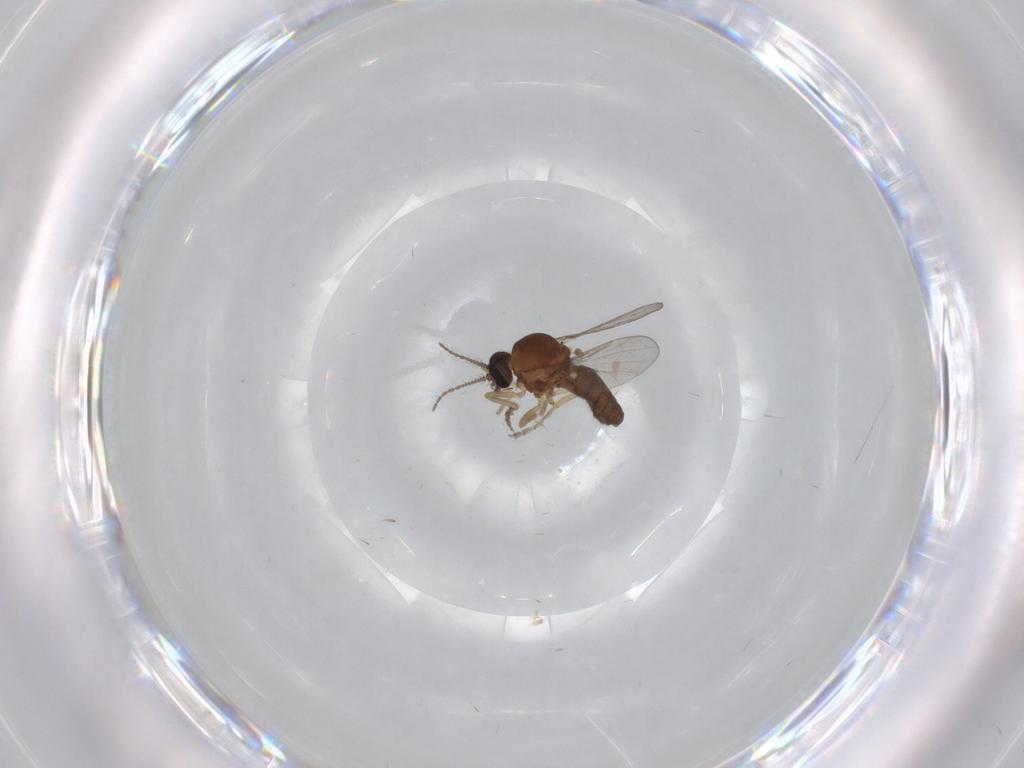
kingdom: Animalia
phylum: Arthropoda
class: Insecta
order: Diptera
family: Ceratopogonidae
